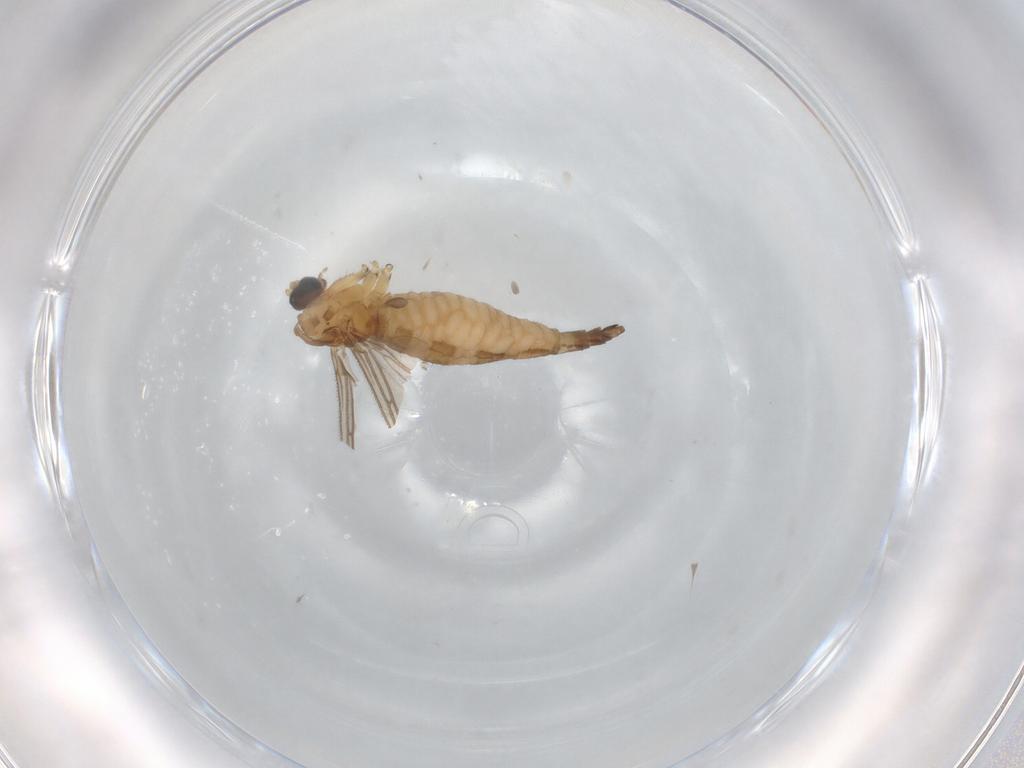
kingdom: Animalia
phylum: Arthropoda
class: Insecta
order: Diptera
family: Sciaridae
